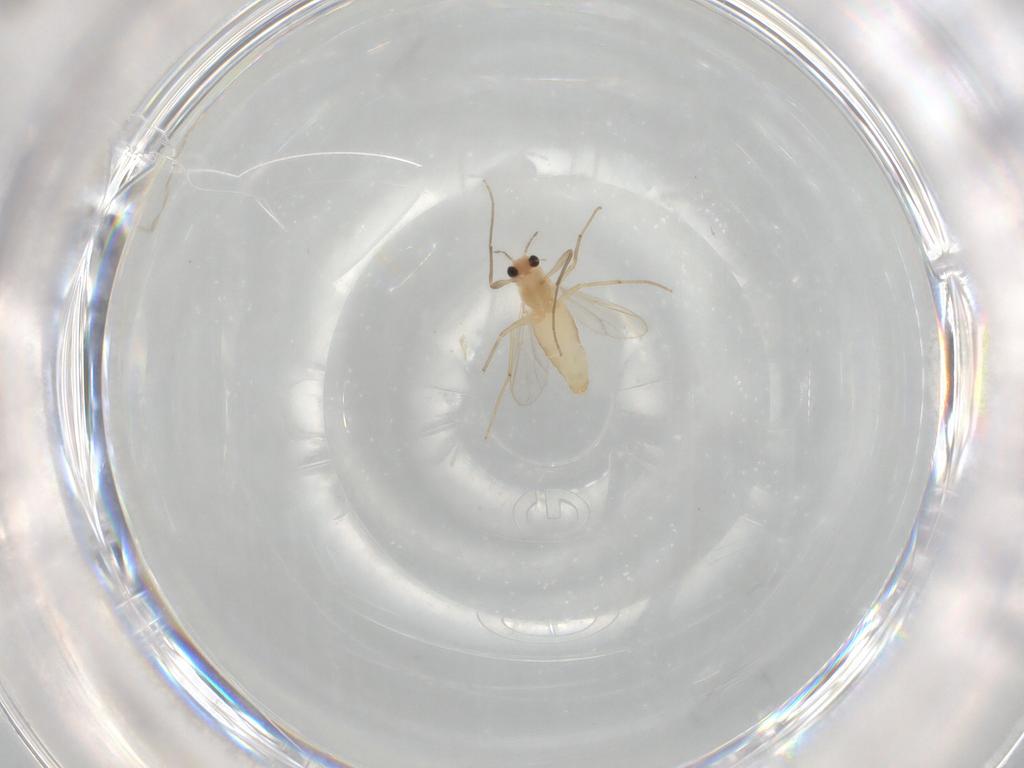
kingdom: Animalia
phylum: Arthropoda
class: Insecta
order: Diptera
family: Chironomidae
